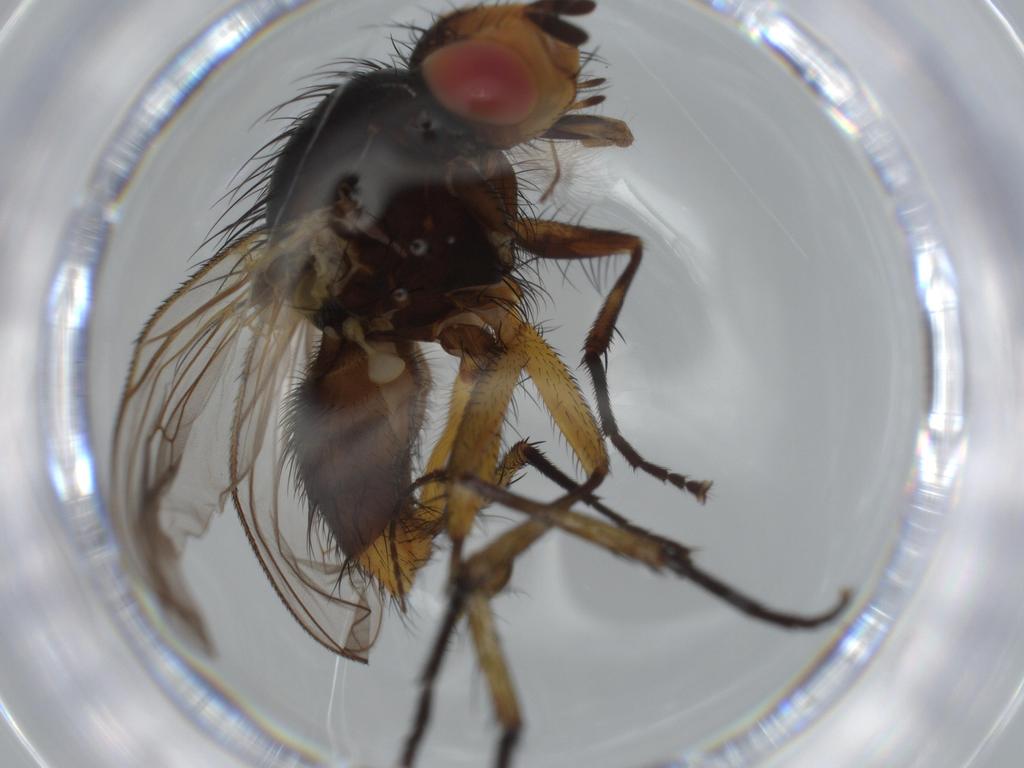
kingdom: Animalia
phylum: Arthropoda
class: Insecta
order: Diptera
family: Anthomyiidae
